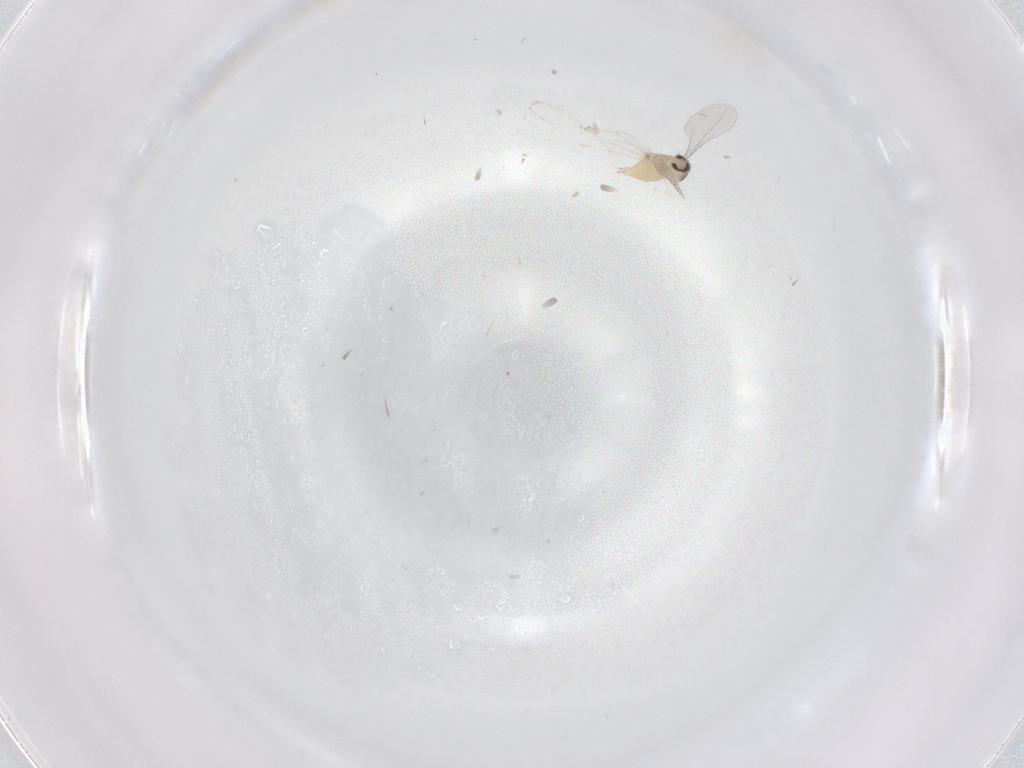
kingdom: Animalia
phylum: Arthropoda
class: Insecta
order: Diptera
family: Cecidomyiidae
